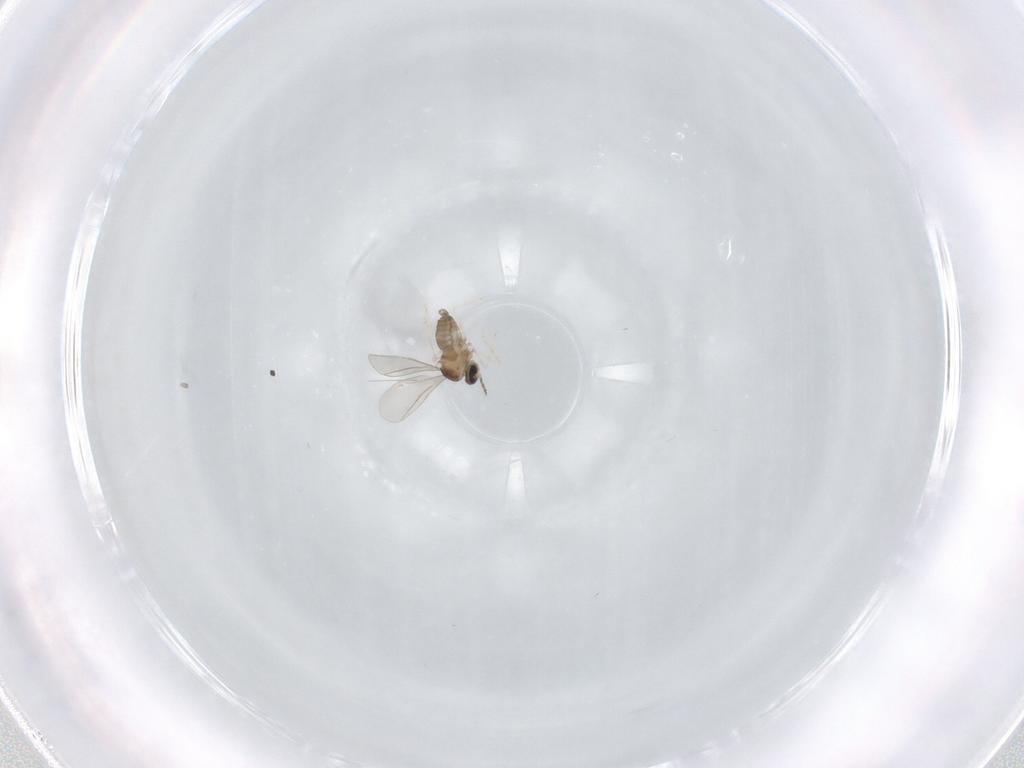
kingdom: Animalia
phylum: Arthropoda
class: Insecta
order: Diptera
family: Cecidomyiidae
